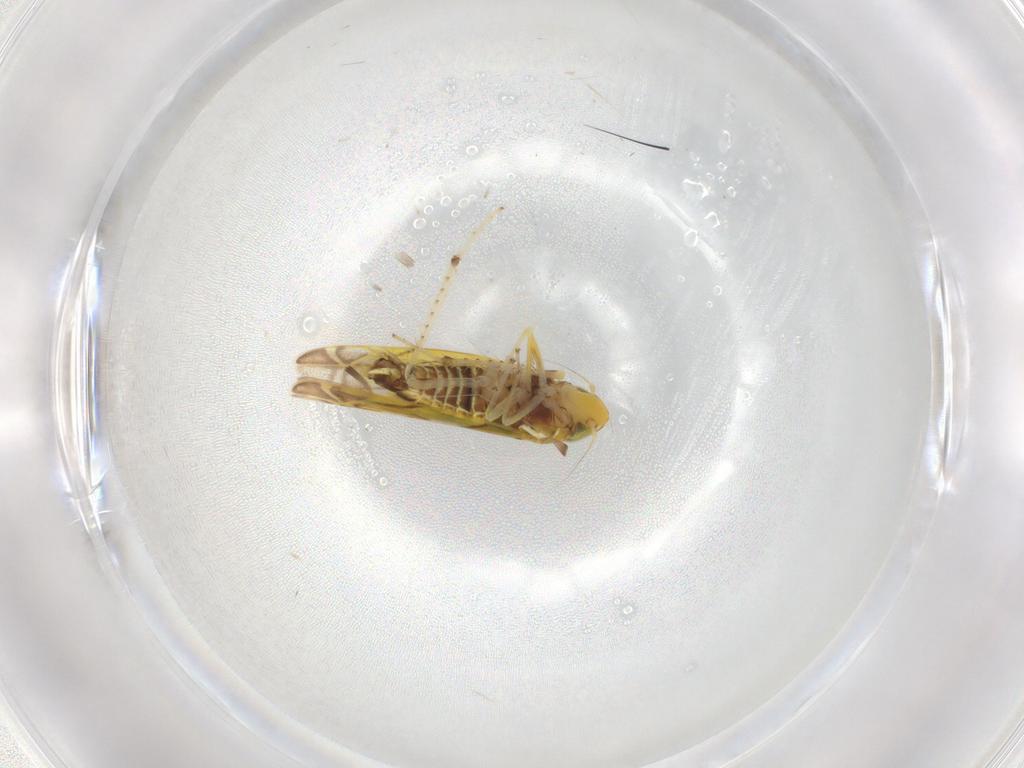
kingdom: Animalia
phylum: Arthropoda
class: Insecta
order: Hemiptera
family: Cicadellidae
